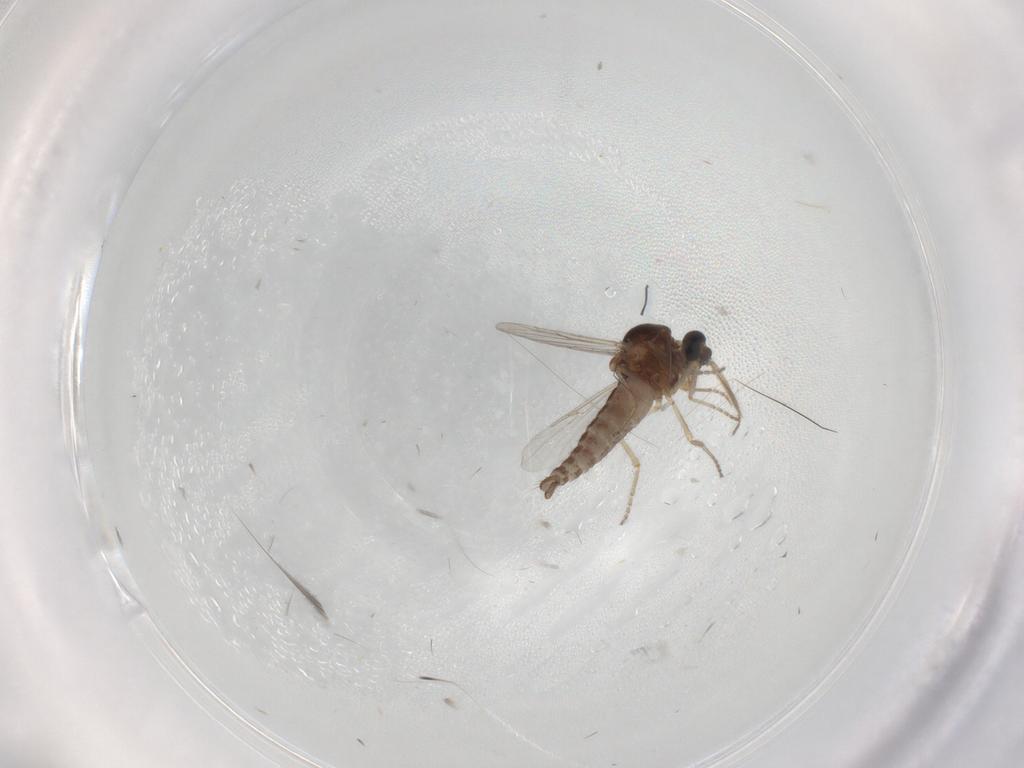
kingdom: Animalia
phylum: Arthropoda
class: Insecta
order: Diptera
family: Ceratopogonidae
